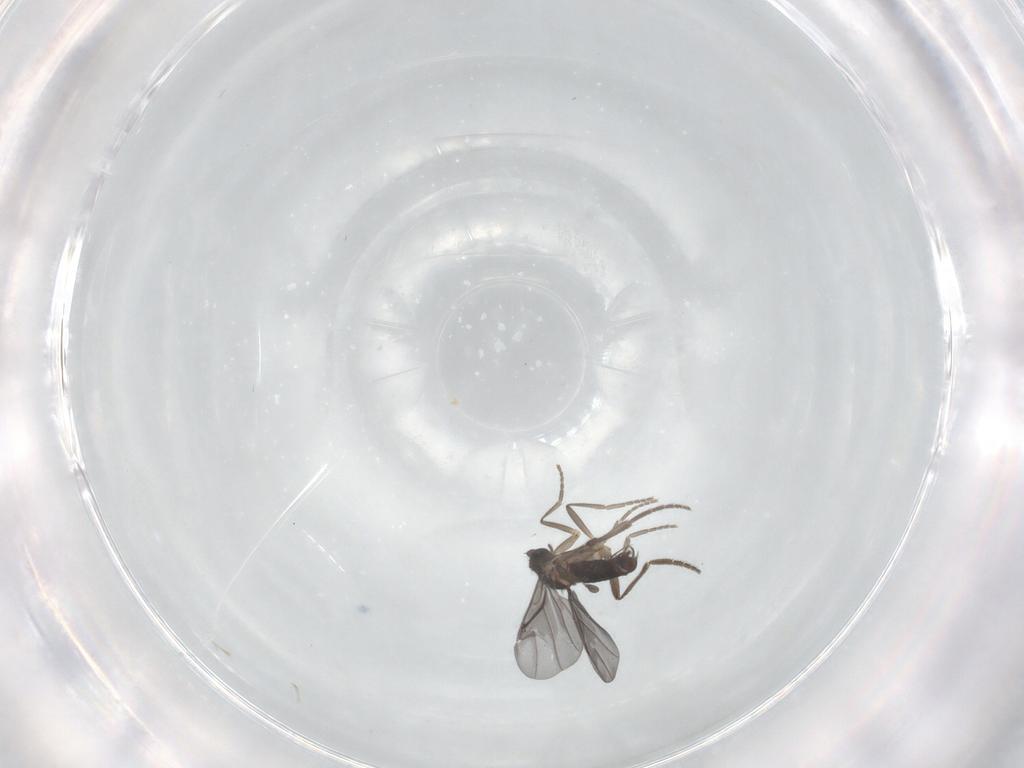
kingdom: Animalia
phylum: Arthropoda
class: Insecta
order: Diptera
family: Phoridae
